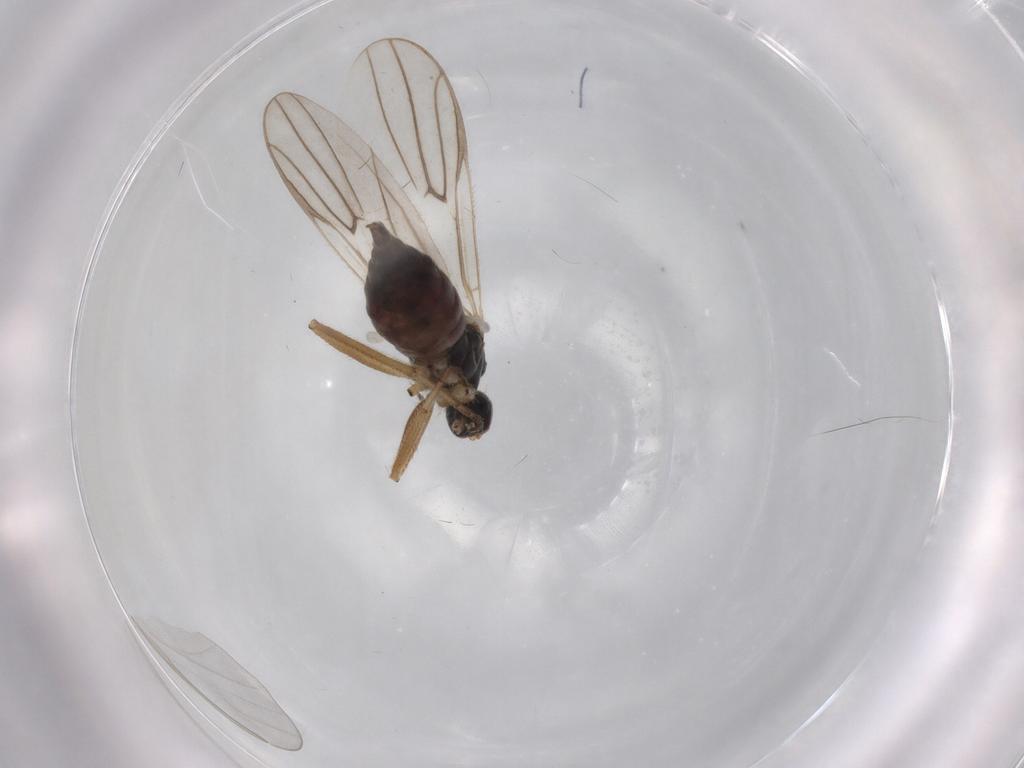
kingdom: Animalia
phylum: Arthropoda
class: Insecta
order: Diptera
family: Hybotidae
